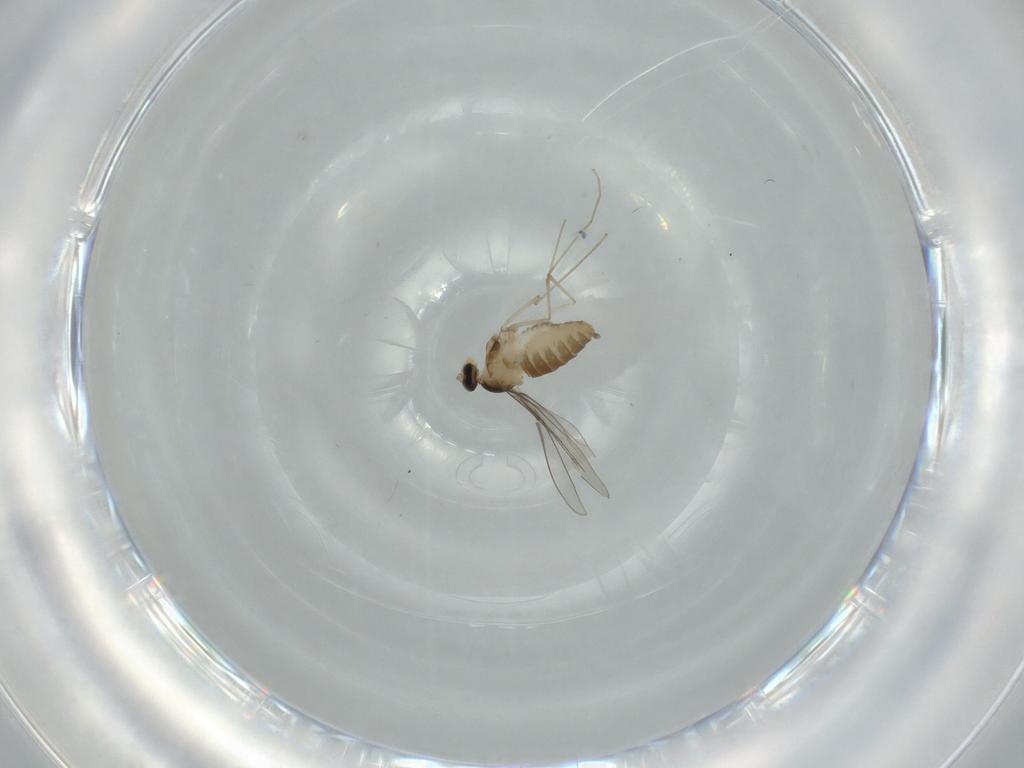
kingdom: Animalia
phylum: Arthropoda
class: Insecta
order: Diptera
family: Cecidomyiidae
